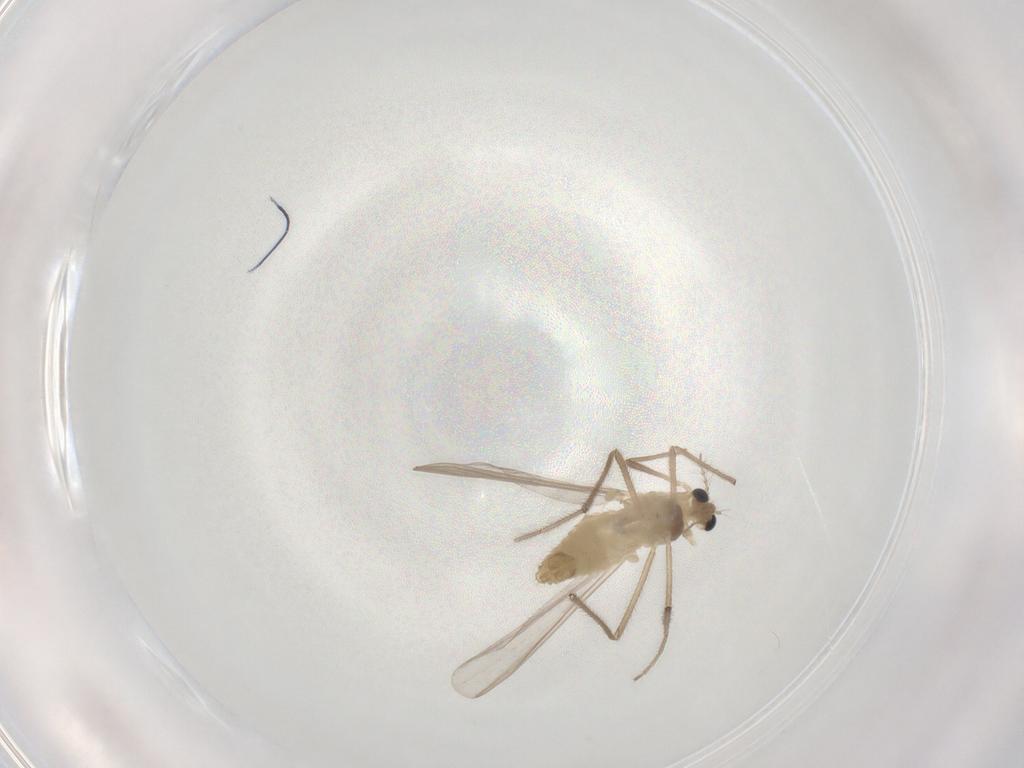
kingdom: Animalia
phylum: Arthropoda
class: Insecta
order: Diptera
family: Chironomidae
